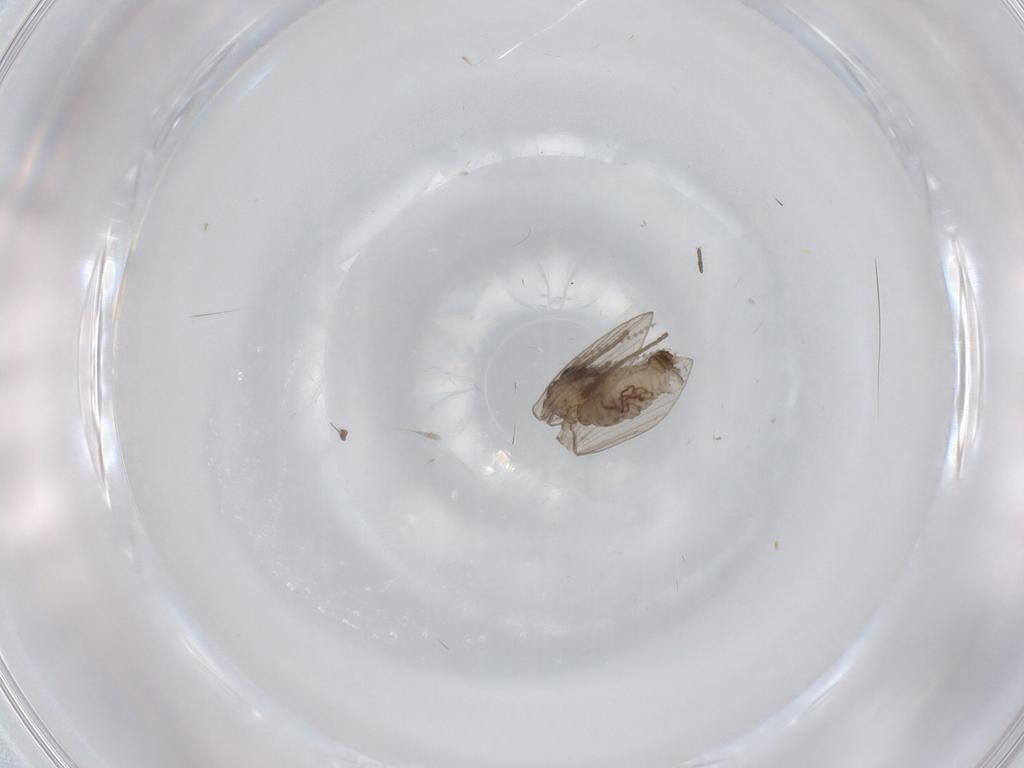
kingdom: Animalia
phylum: Arthropoda
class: Insecta
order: Diptera
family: Psychodidae
